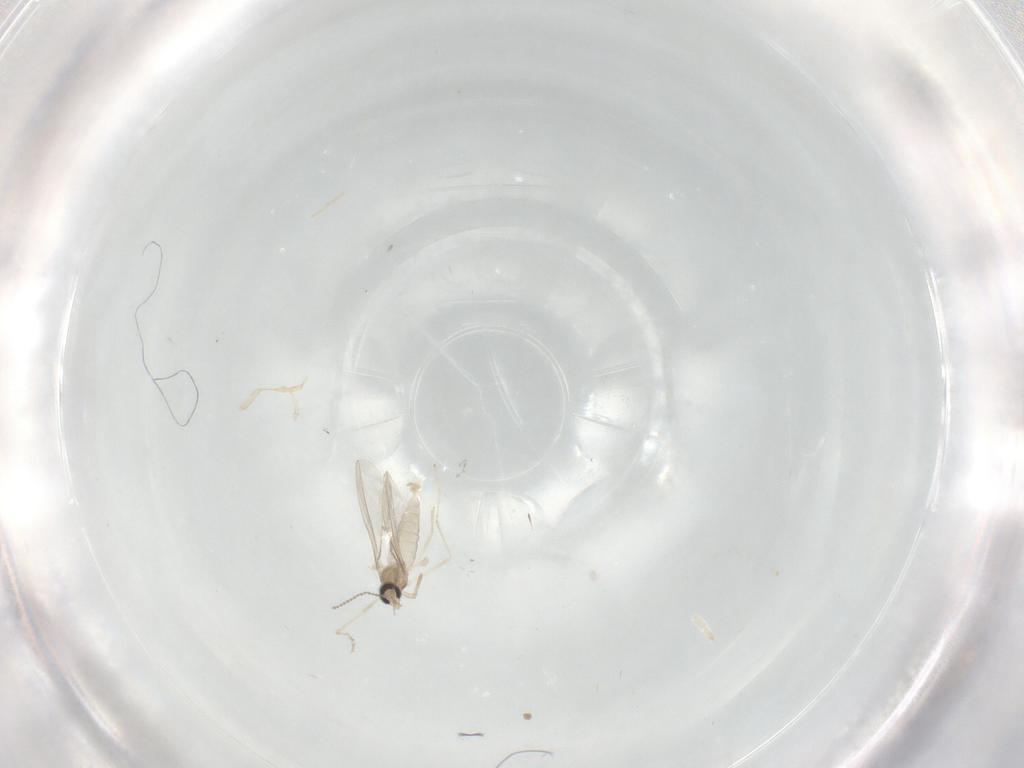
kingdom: Animalia
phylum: Arthropoda
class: Insecta
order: Diptera
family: Cecidomyiidae
